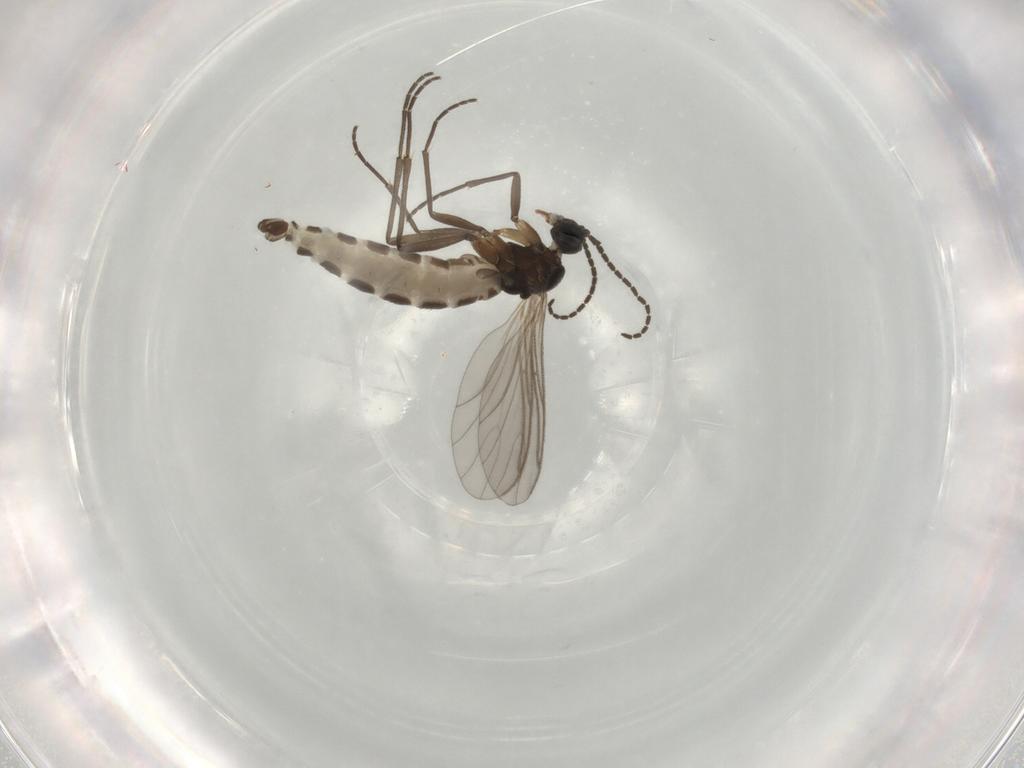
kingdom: Animalia
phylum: Arthropoda
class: Insecta
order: Diptera
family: Sciaridae
